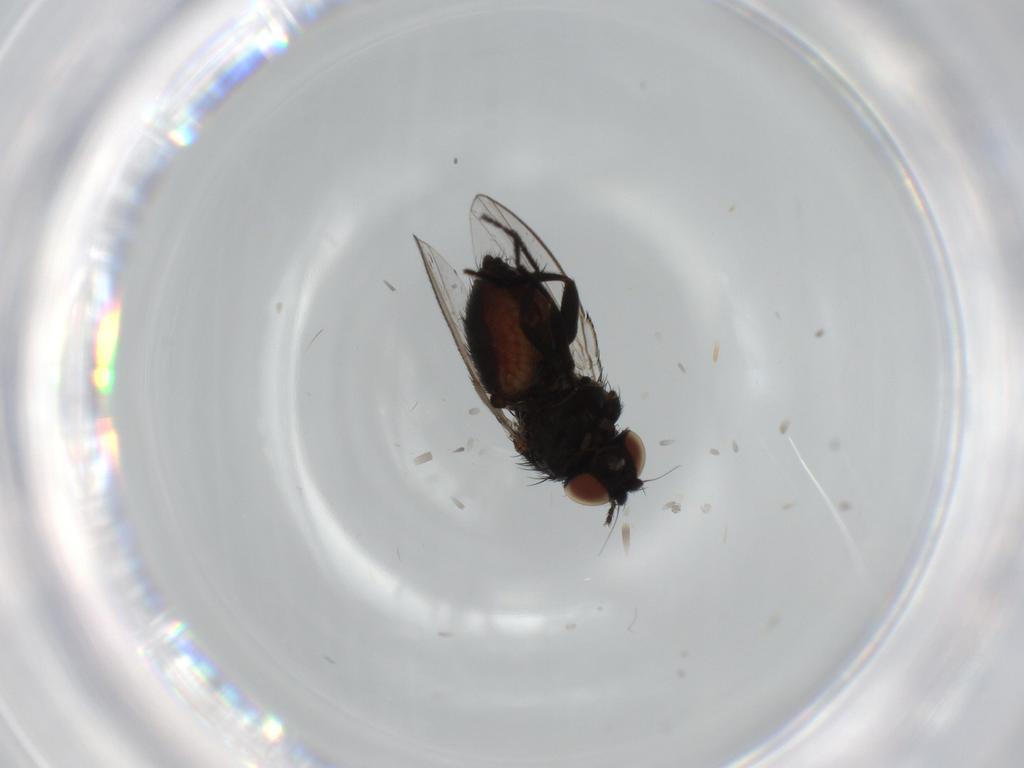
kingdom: Animalia
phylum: Arthropoda
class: Insecta
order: Diptera
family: Milichiidae
